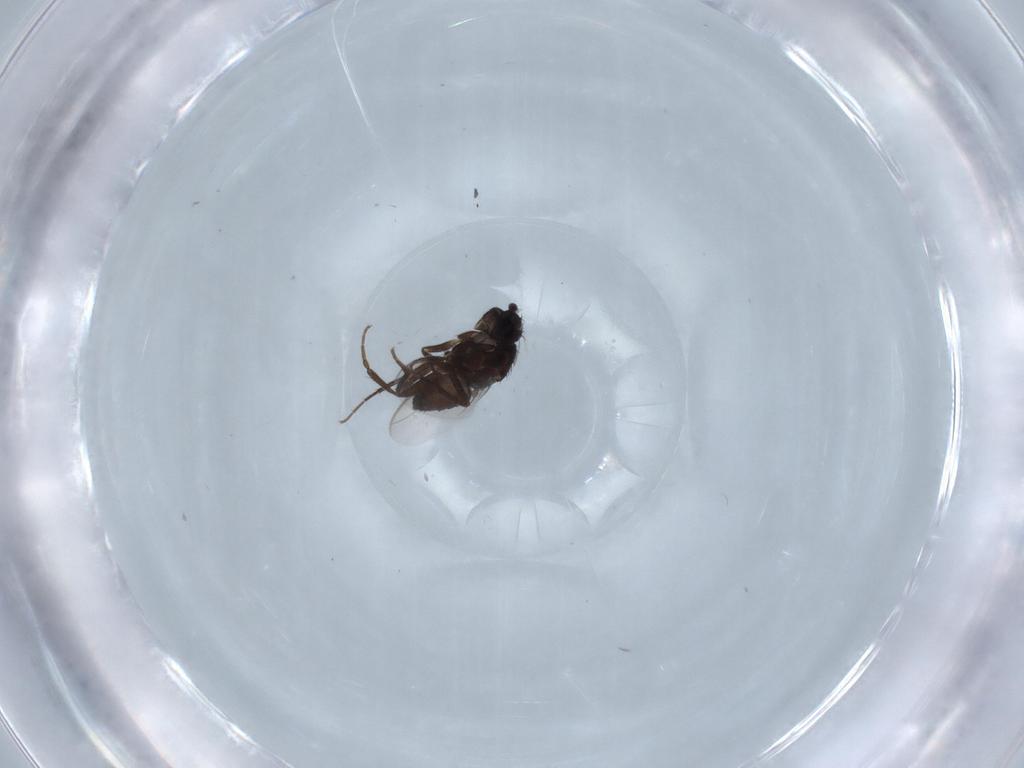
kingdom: Animalia
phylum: Arthropoda
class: Insecta
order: Diptera
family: Sphaeroceridae
